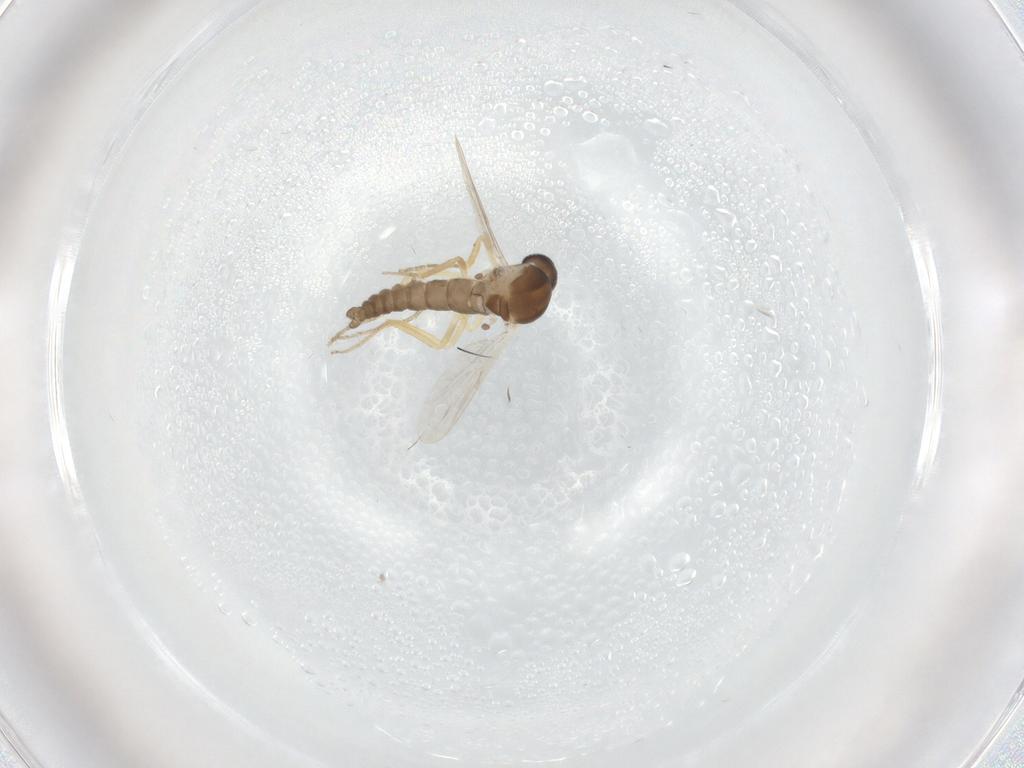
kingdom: Animalia
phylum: Arthropoda
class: Insecta
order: Diptera
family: Ceratopogonidae
